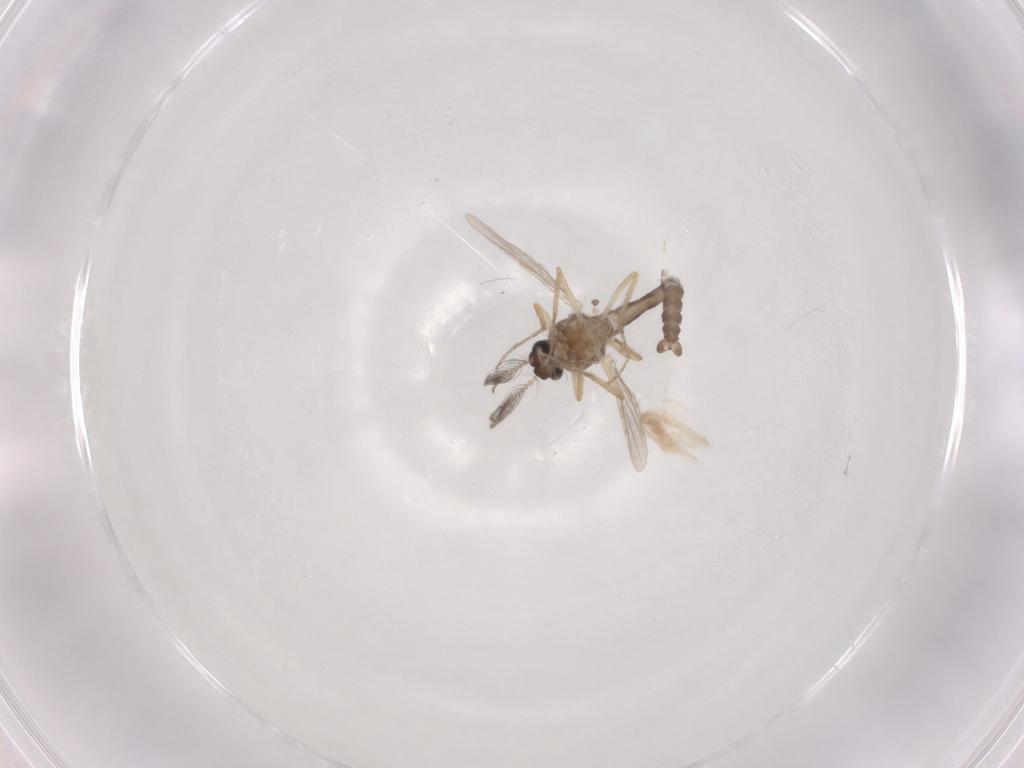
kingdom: Animalia
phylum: Arthropoda
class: Insecta
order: Diptera
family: Ceratopogonidae
